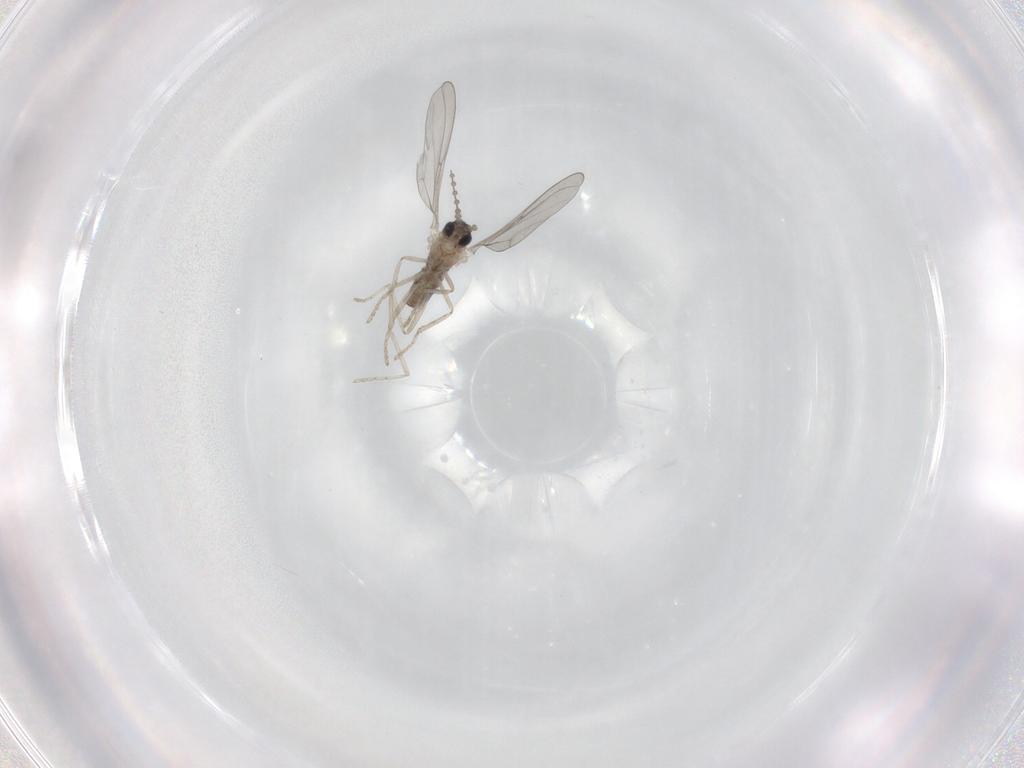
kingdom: Animalia
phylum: Arthropoda
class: Insecta
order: Diptera
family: Cecidomyiidae
